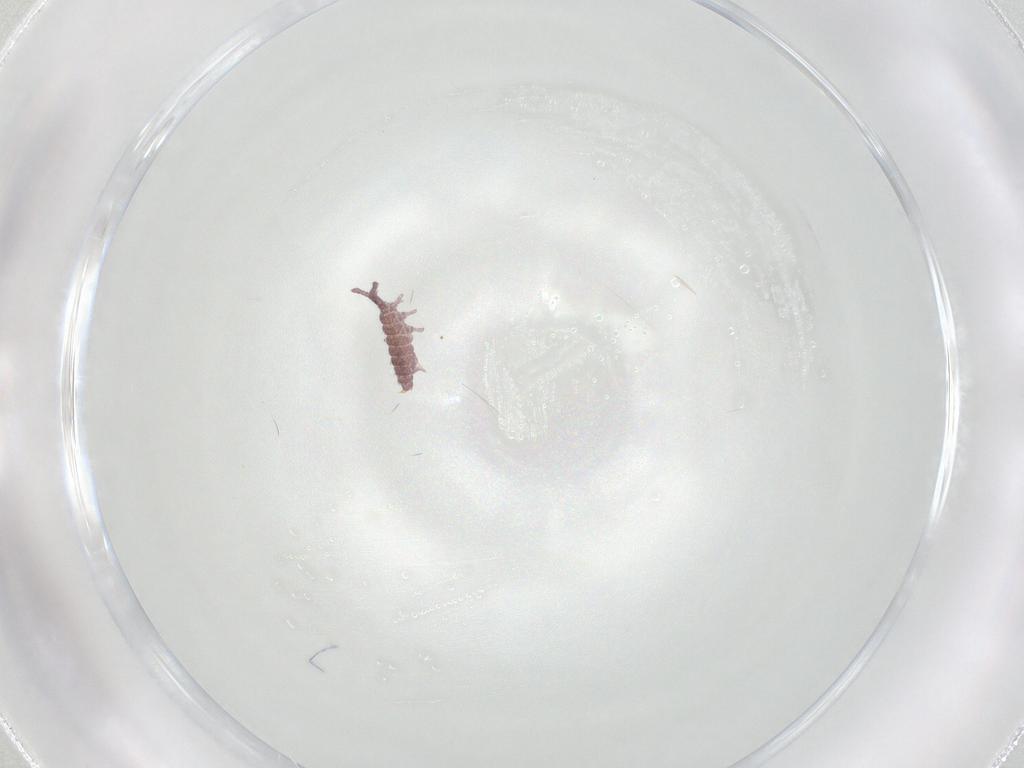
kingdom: Animalia
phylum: Arthropoda
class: Collembola
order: Poduromorpha
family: Hypogastruridae
